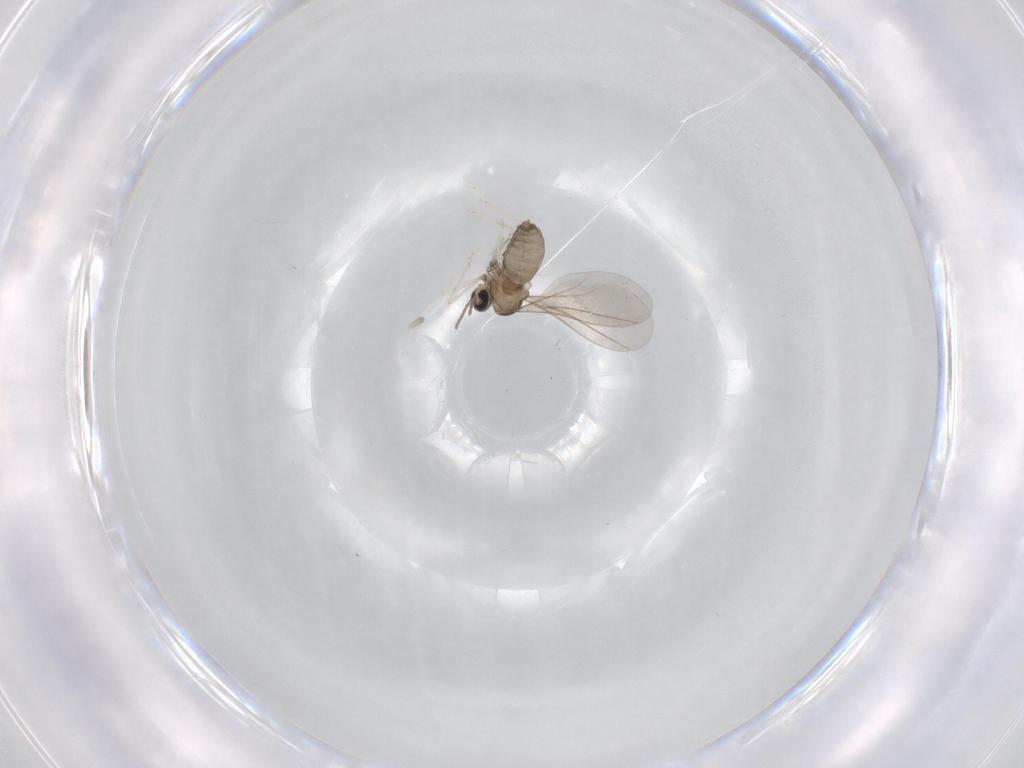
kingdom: Animalia
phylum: Arthropoda
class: Insecta
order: Diptera
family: Cecidomyiidae
